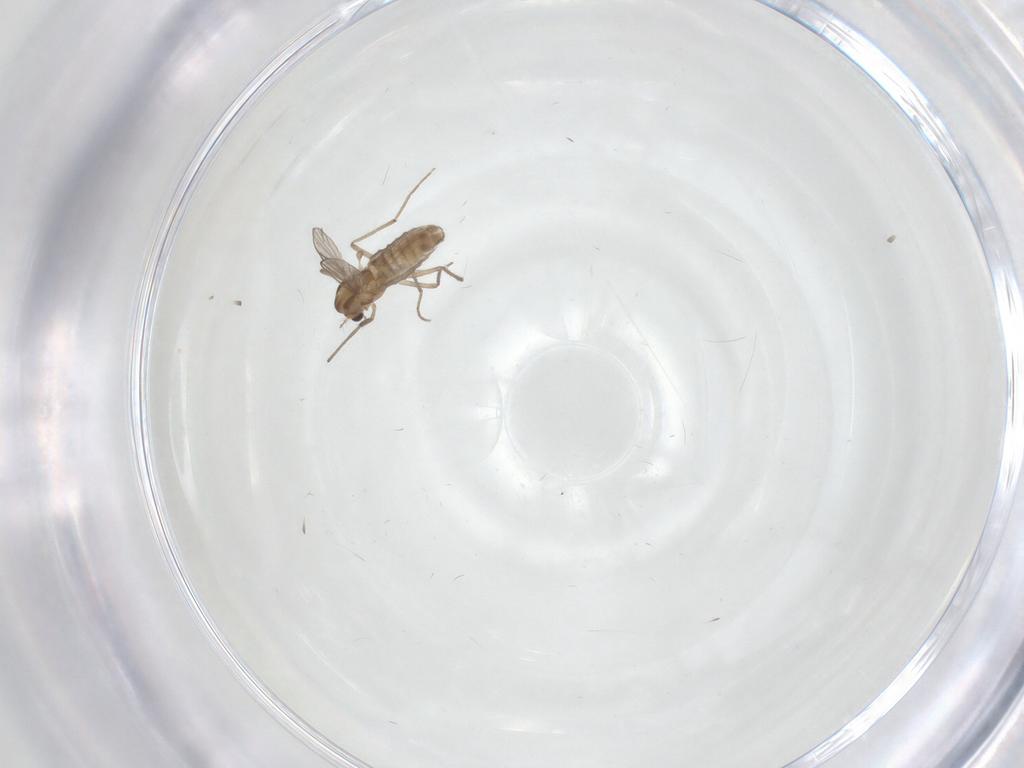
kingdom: Animalia
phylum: Arthropoda
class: Insecta
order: Diptera
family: Chironomidae
